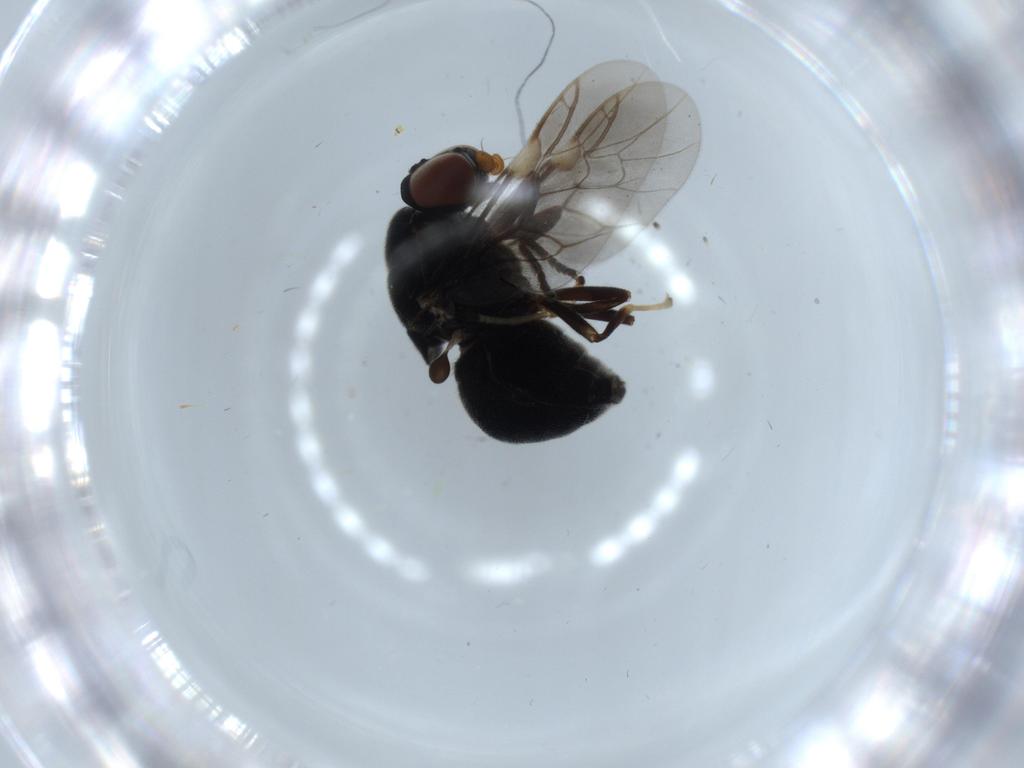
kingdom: Animalia
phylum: Arthropoda
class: Insecta
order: Diptera
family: Stratiomyidae
